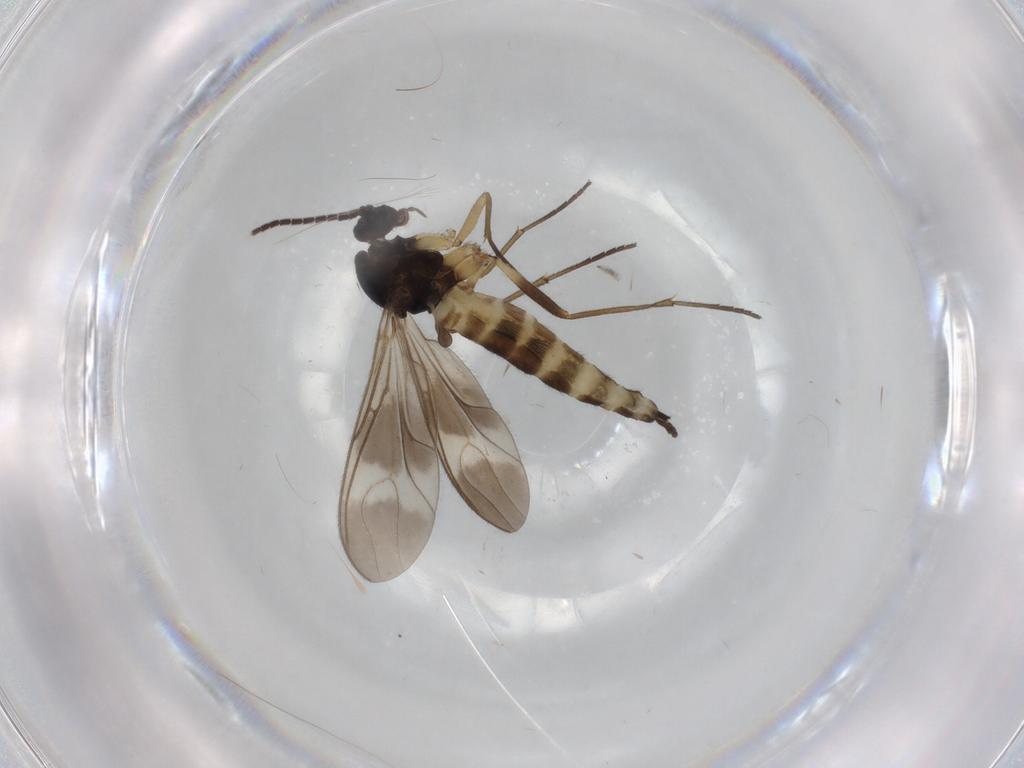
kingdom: Animalia
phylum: Arthropoda
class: Insecta
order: Diptera
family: Sciaridae
